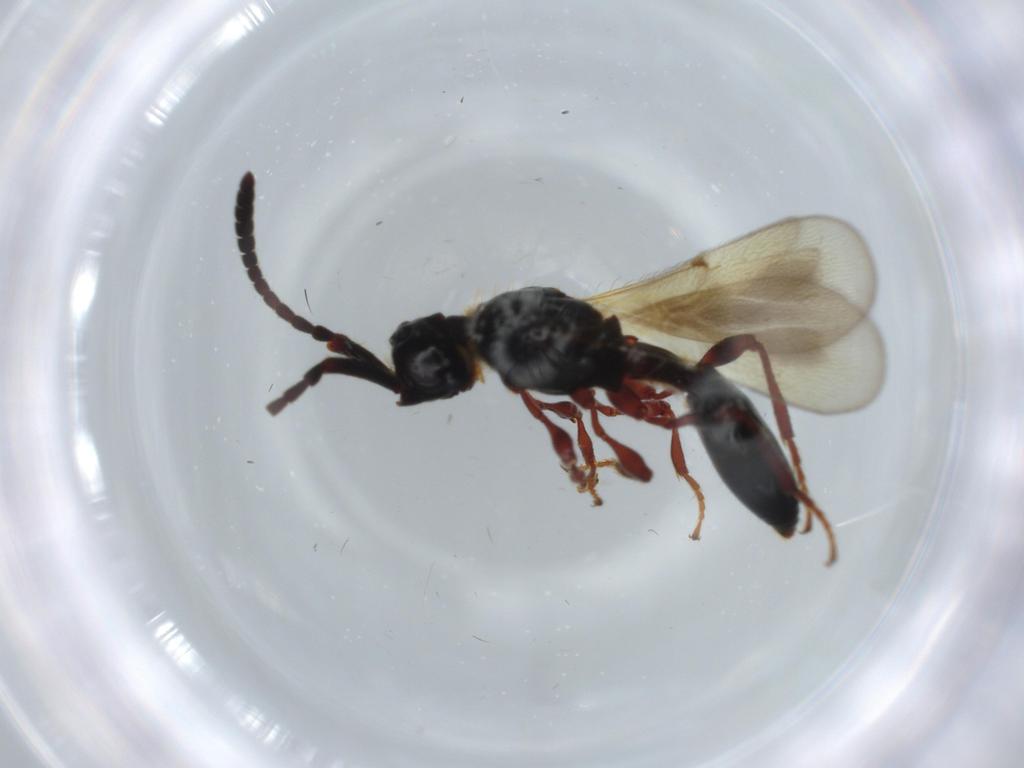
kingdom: Animalia
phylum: Arthropoda
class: Insecta
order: Hymenoptera
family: Diapriidae
